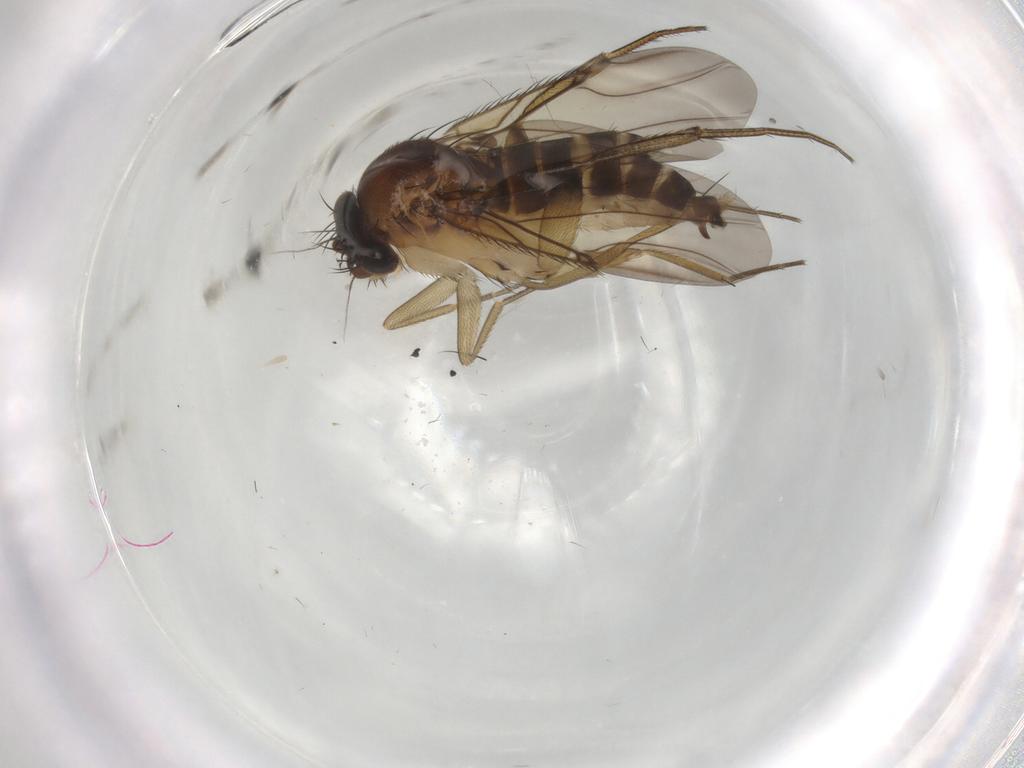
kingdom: Animalia
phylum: Arthropoda
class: Insecta
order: Diptera
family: Phoridae
